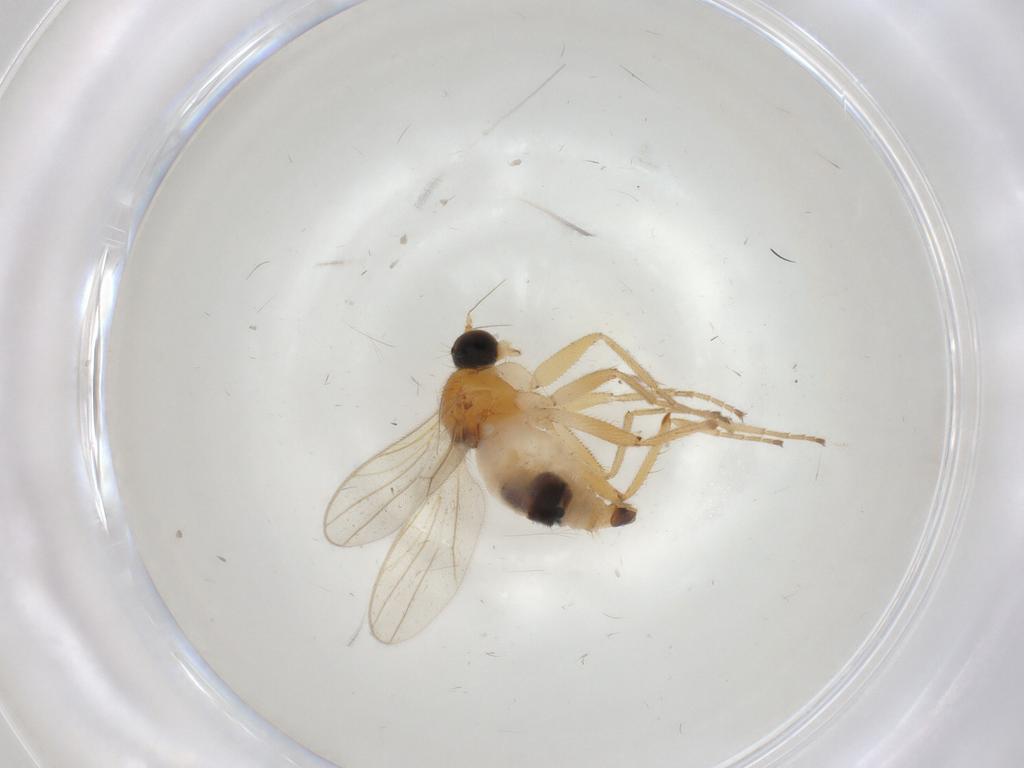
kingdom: Animalia
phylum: Arthropoda
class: Insecta
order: Diptera
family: Hybotidae
